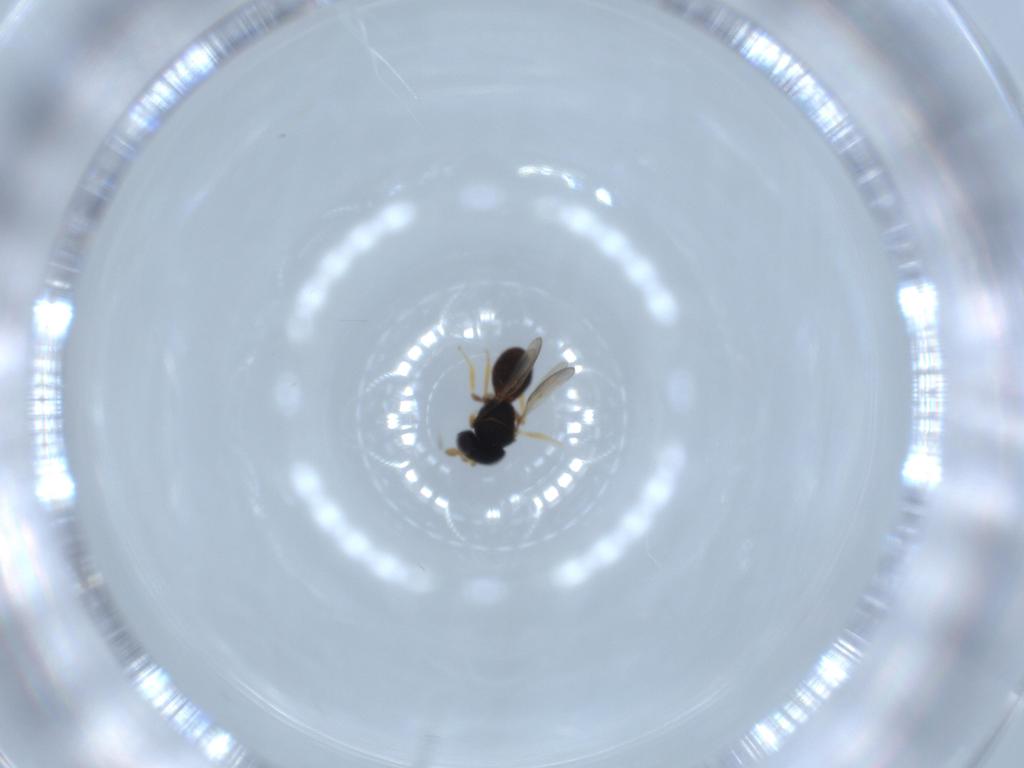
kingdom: Animalia
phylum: Arthropoda
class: Insecta
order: Hymenoptera
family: Scelionidae
